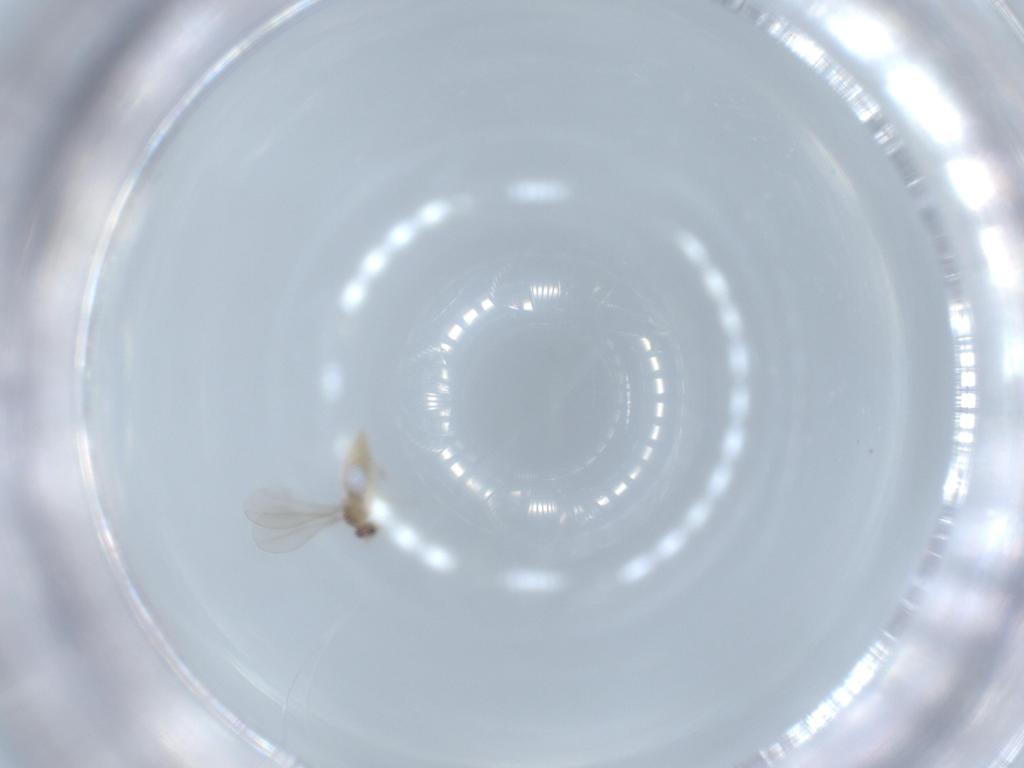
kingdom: Animalia
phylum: Arthropoda
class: Insecta
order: Diptera
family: Cecidomyiidae
